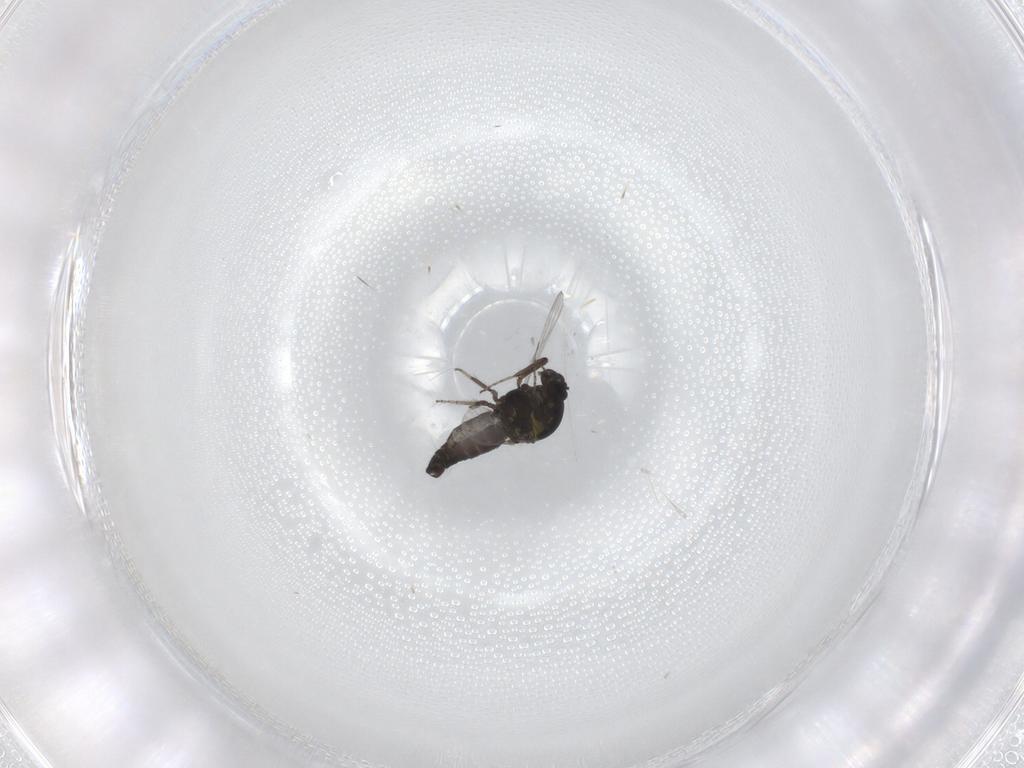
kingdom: Animalia
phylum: Arthropoda
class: Insecta
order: Diptera
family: Ceratopogonidae
